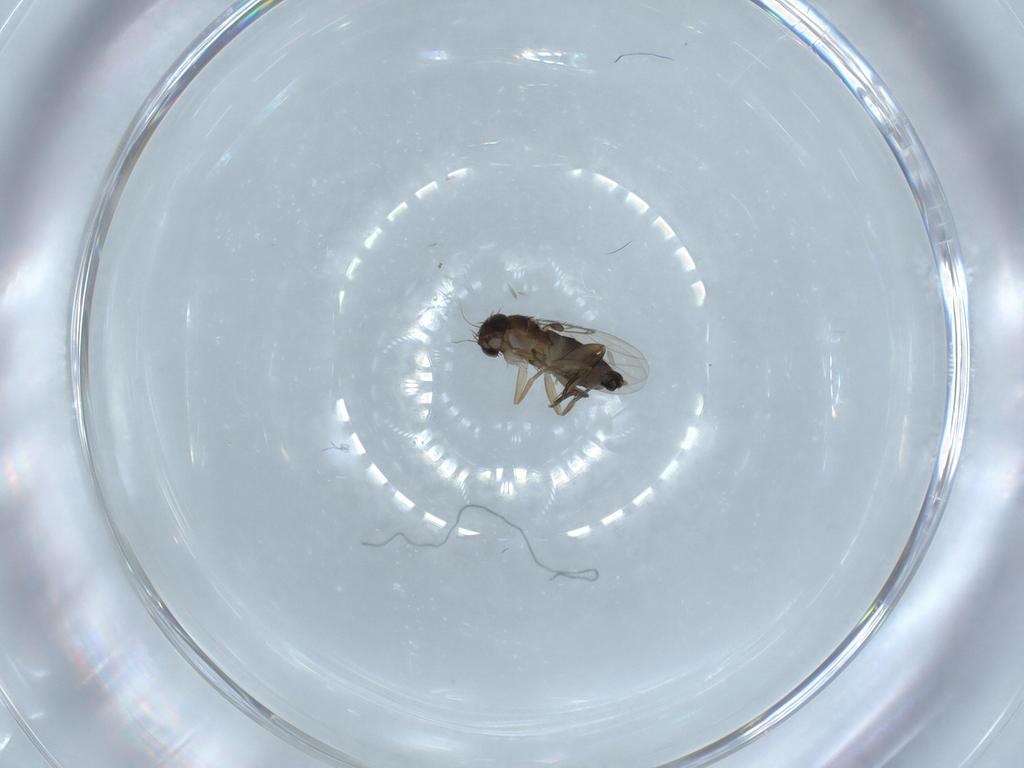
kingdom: Animalia
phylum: Arthropoda
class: Insecta
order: Diptera
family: Phoridae
